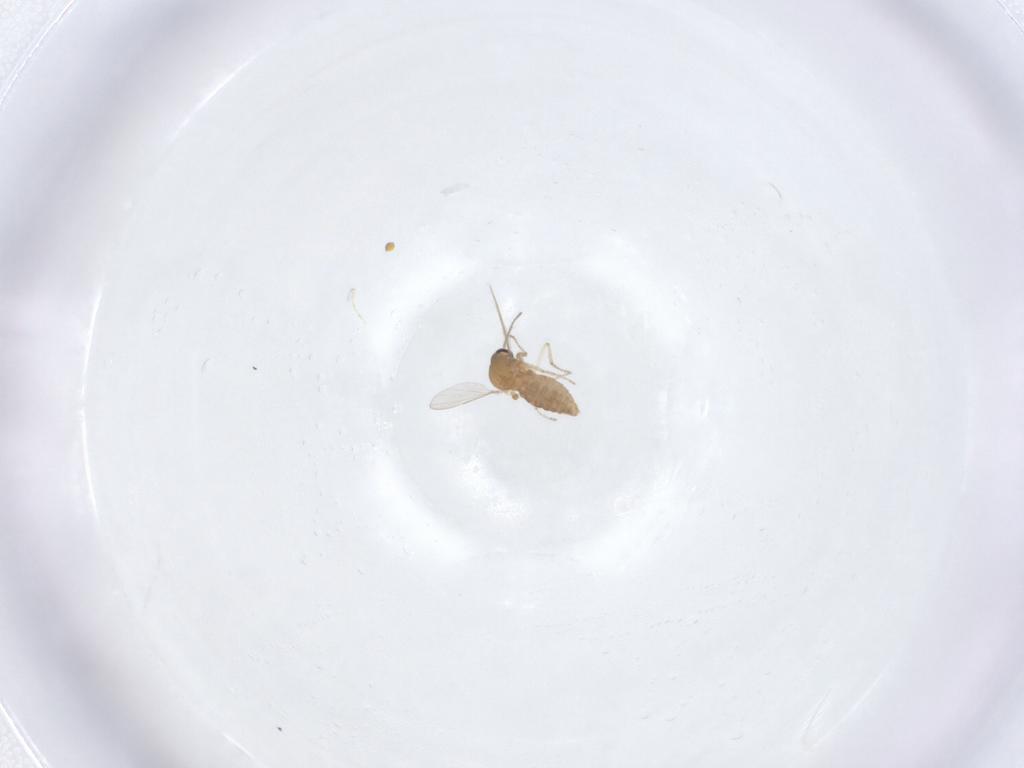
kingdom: Animalia
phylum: Arthropoda
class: Insecta
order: Diptera
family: Ceratopogonidae
